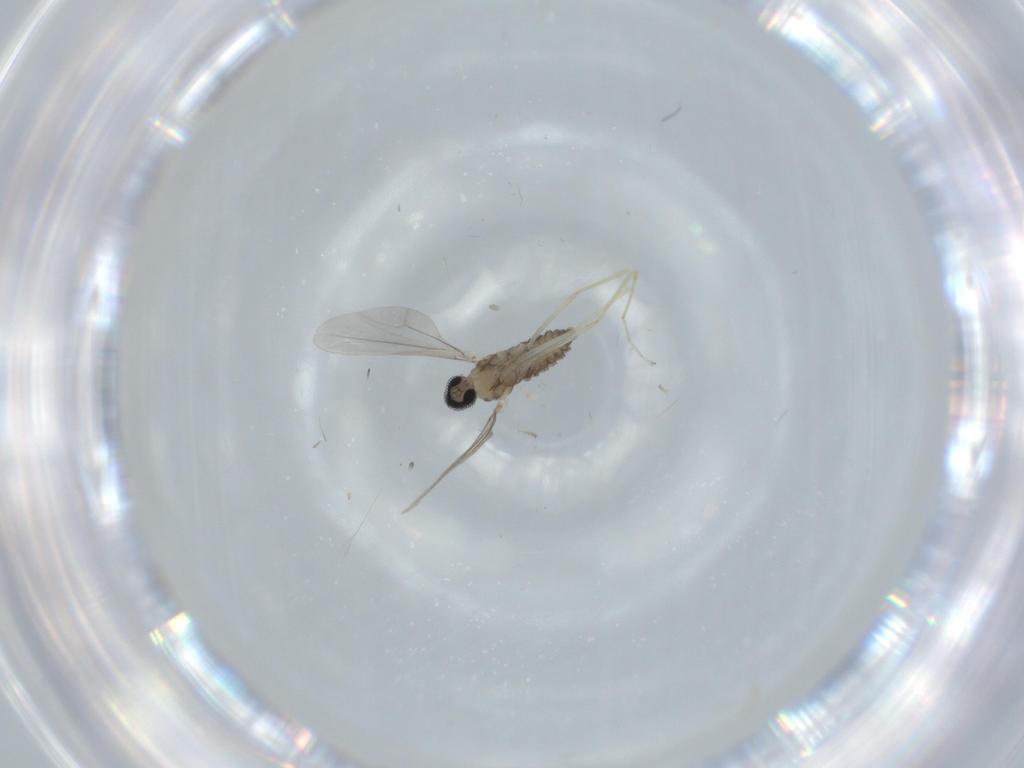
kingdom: Animalia
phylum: Arthropoda
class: Insecta
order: Diptera
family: Cecidomyiidae
